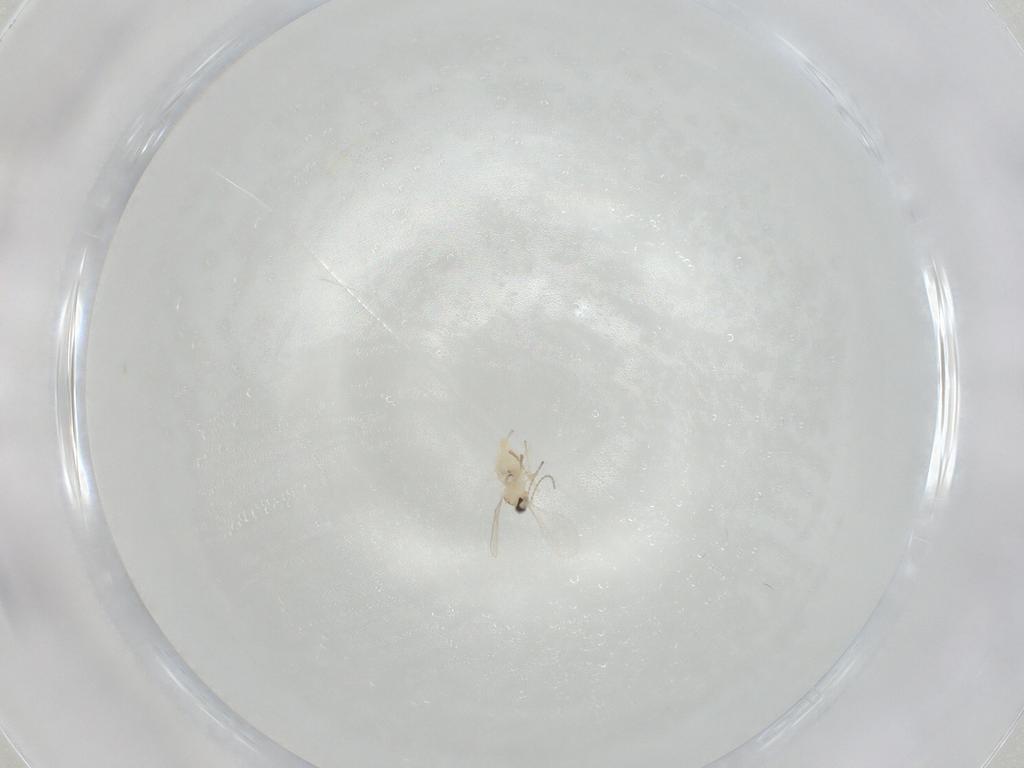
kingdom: Animalia
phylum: Arthropoda
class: Insecta
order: Diptera
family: Cecidomyiidae
